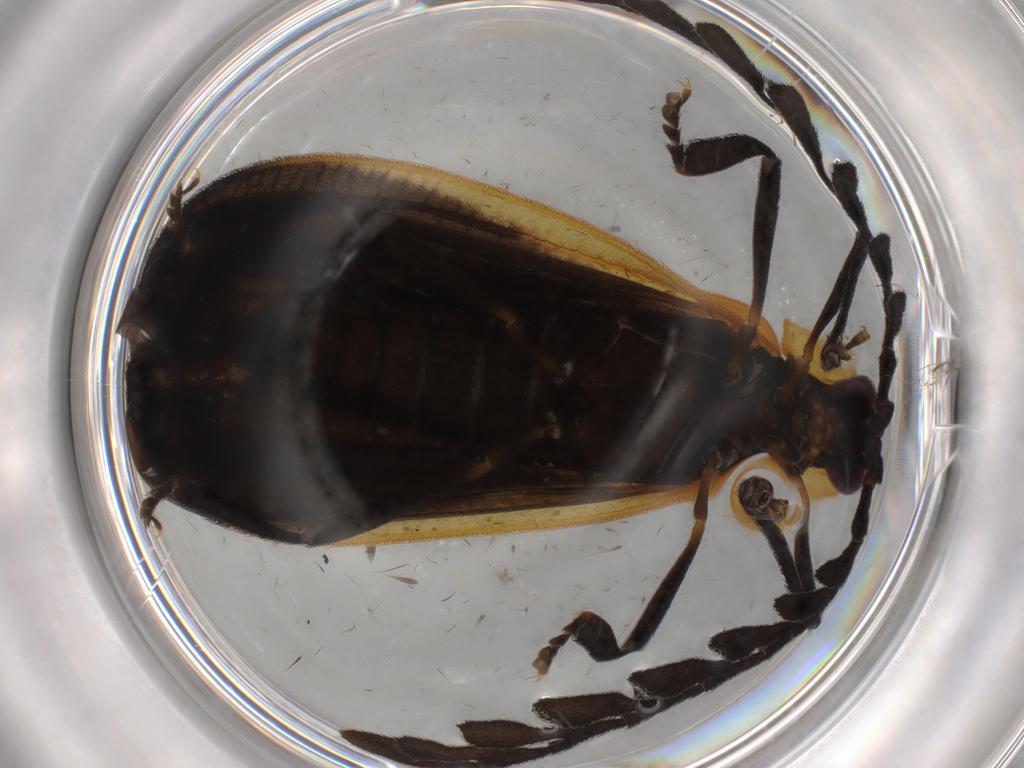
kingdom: Animalia
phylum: Arthropoda
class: Insecta
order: Coleoptera
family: Lycidae
